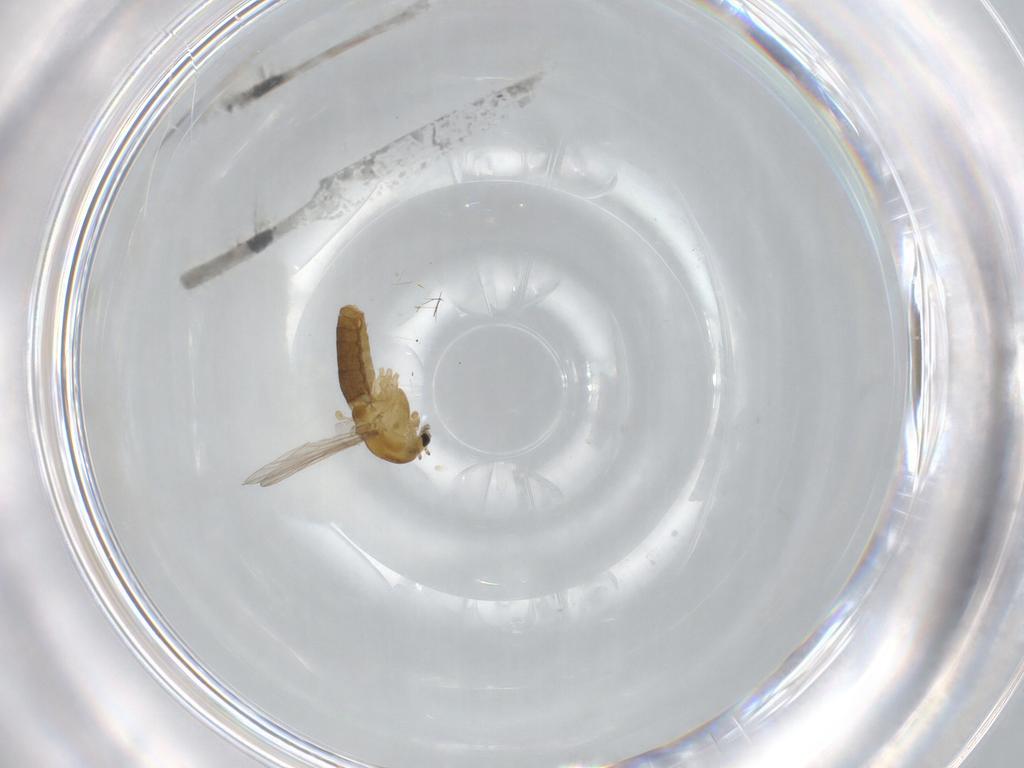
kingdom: Animalia
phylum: Arthropoda
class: Insecta
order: Diptera
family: Chironomidae
